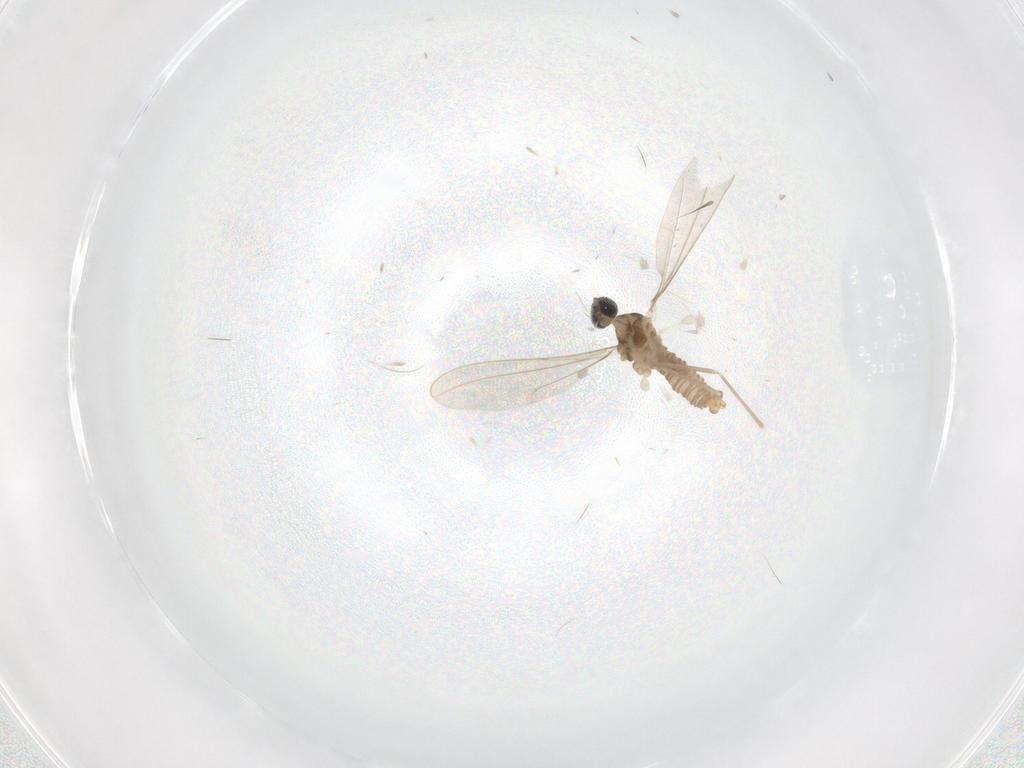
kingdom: Animalia
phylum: Arthropoda
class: Insecta
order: Diptera
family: Cecidomyiidae
